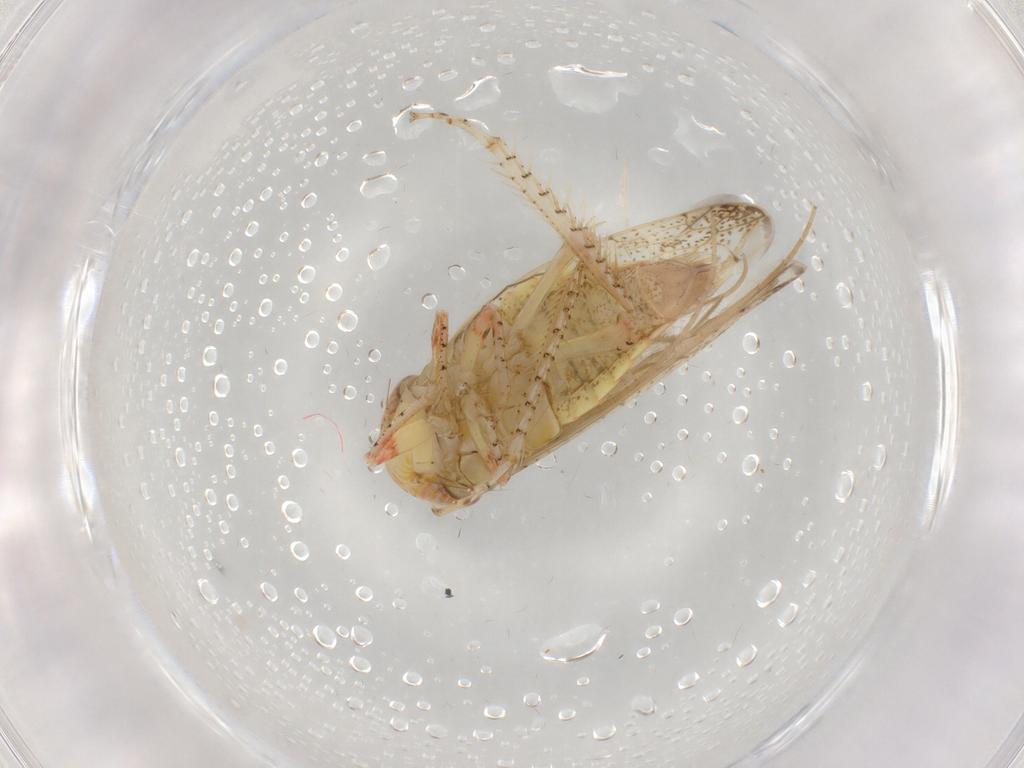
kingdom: Animalia
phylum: Arthropoda
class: Insecta
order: Hemiptera
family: Cicadellidae
